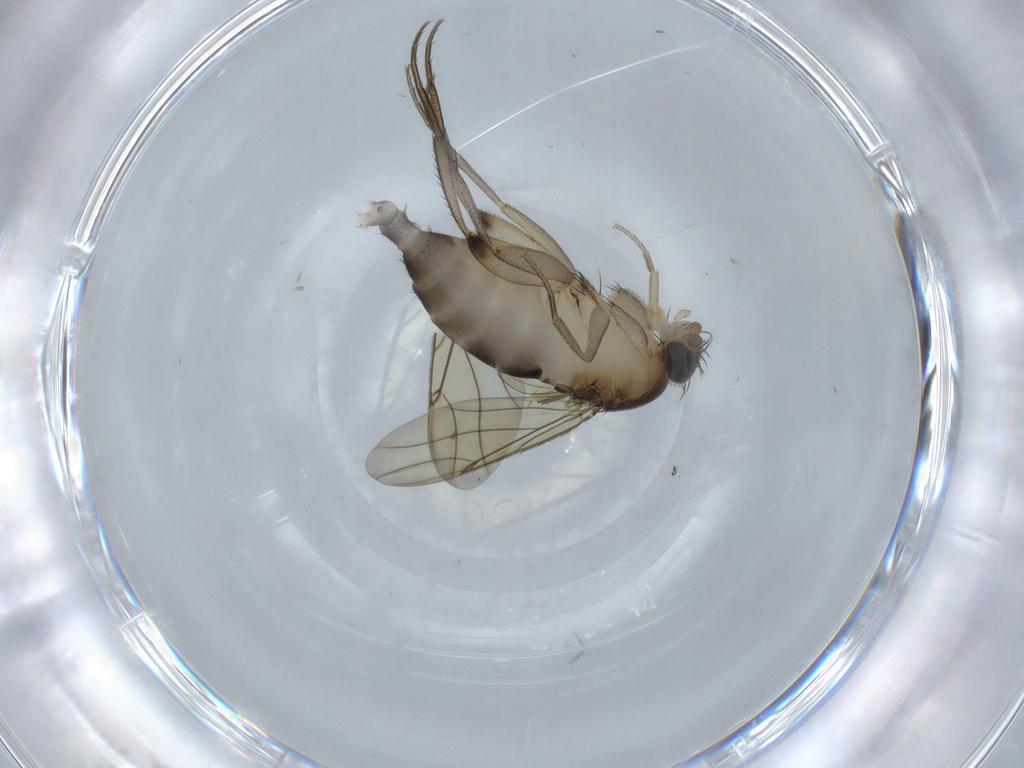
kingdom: Animalia
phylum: Arthropoda
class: Insecta
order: Diptera
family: Phoridae
